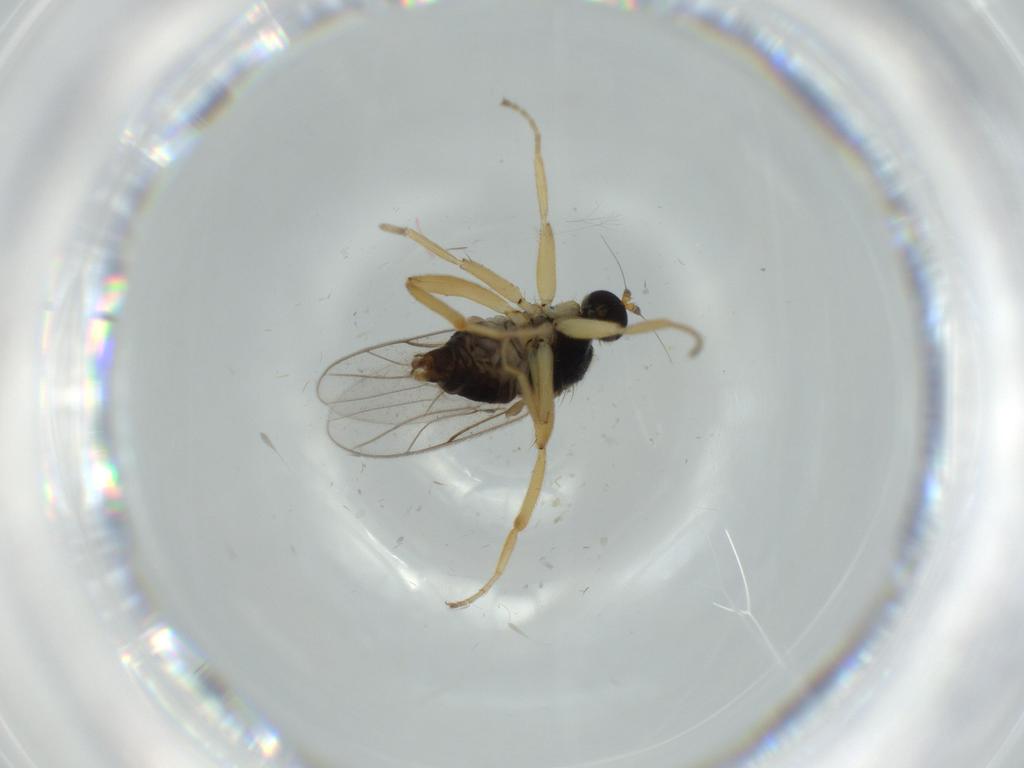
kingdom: Animalia
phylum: Arthropoda
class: Insecta
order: Diptera
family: Hybotidae
